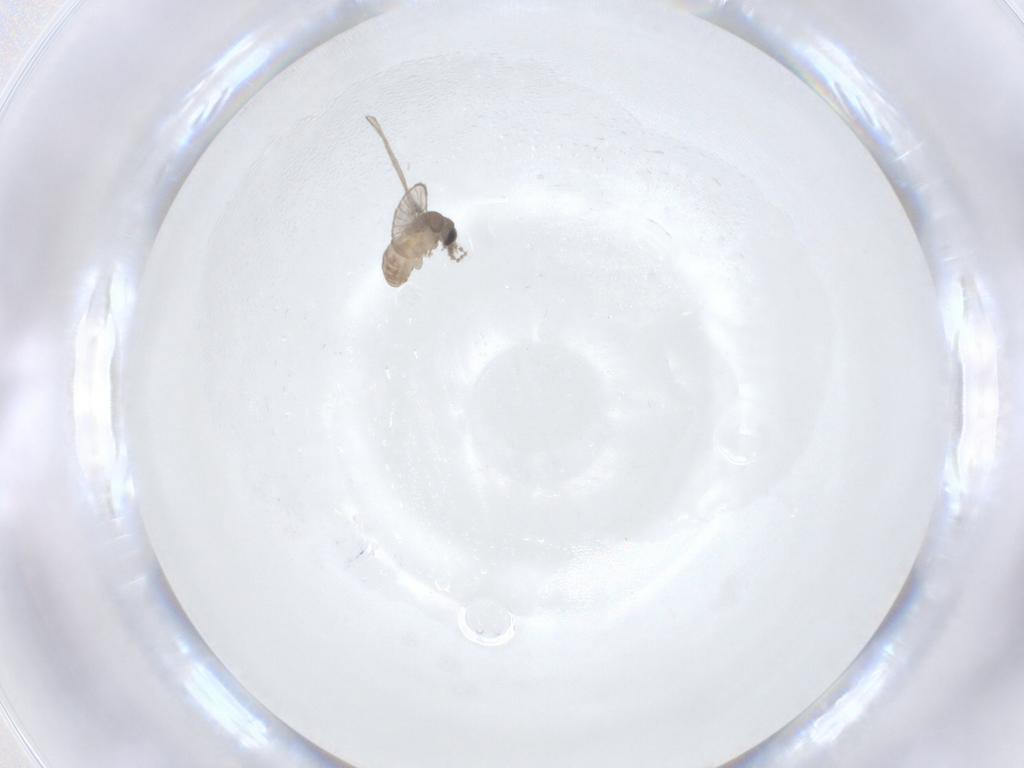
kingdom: Animalia
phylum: Arthropoda
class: Insecta
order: Diptera
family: Psychodidae
